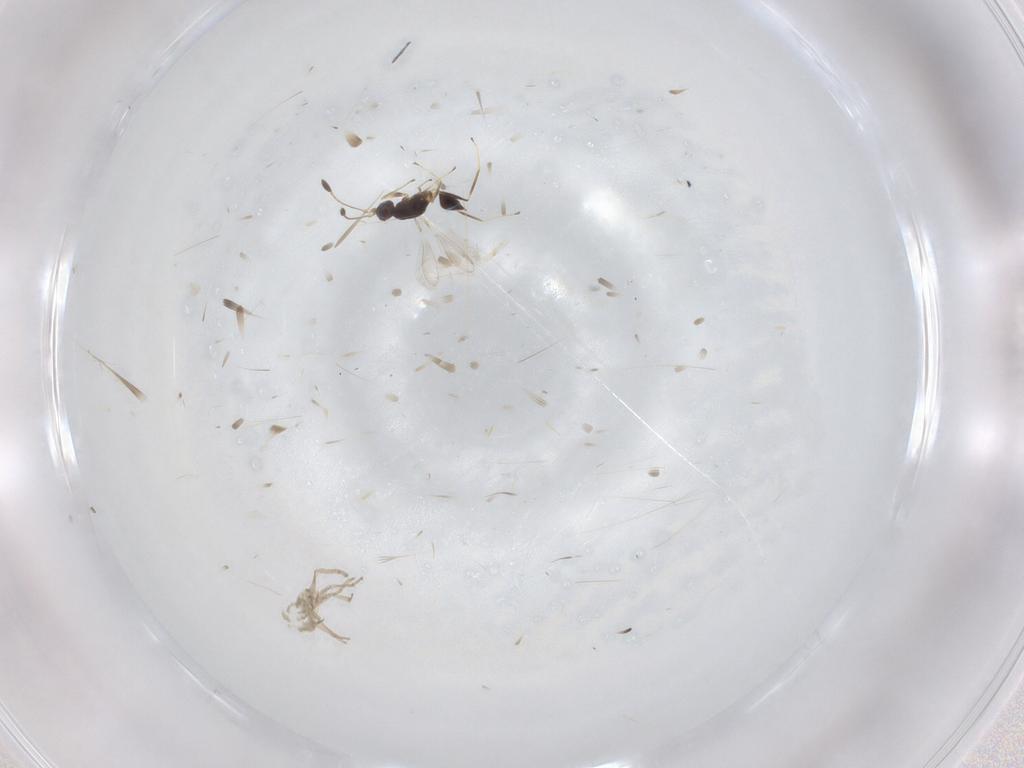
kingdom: Animalia
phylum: Arthropoda
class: Insecta
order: Hymenoptera
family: Mymaridae
